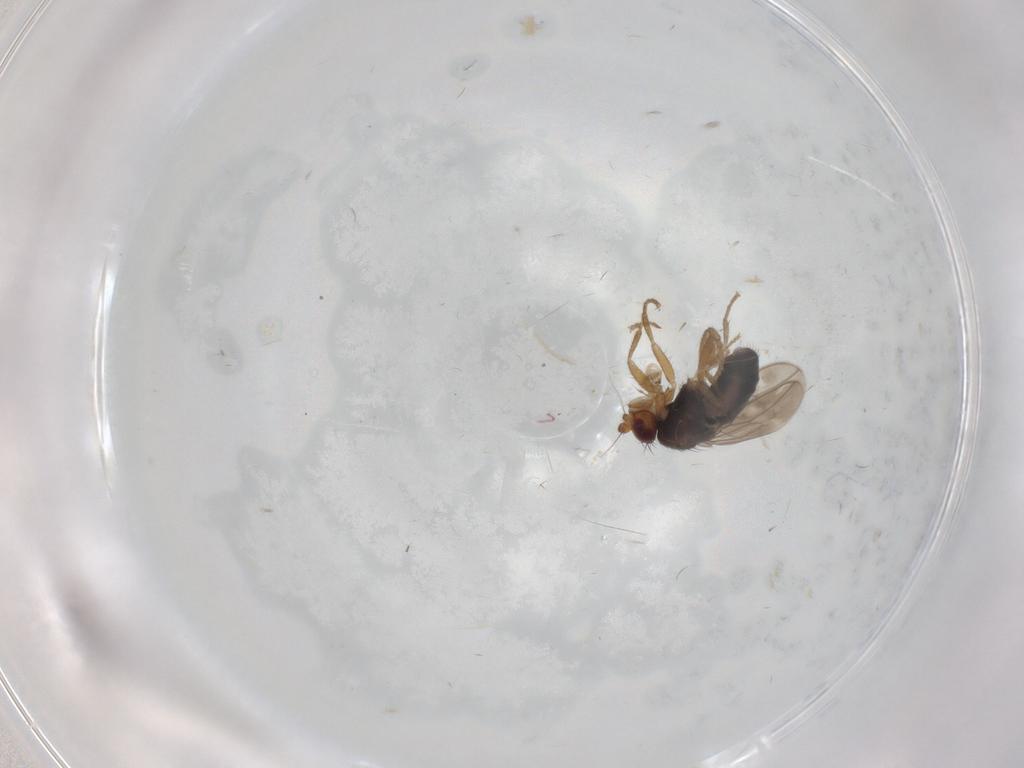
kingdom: Animalia
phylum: Arthropoda
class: Insecta
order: Diptera
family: Sphaeroceridae
